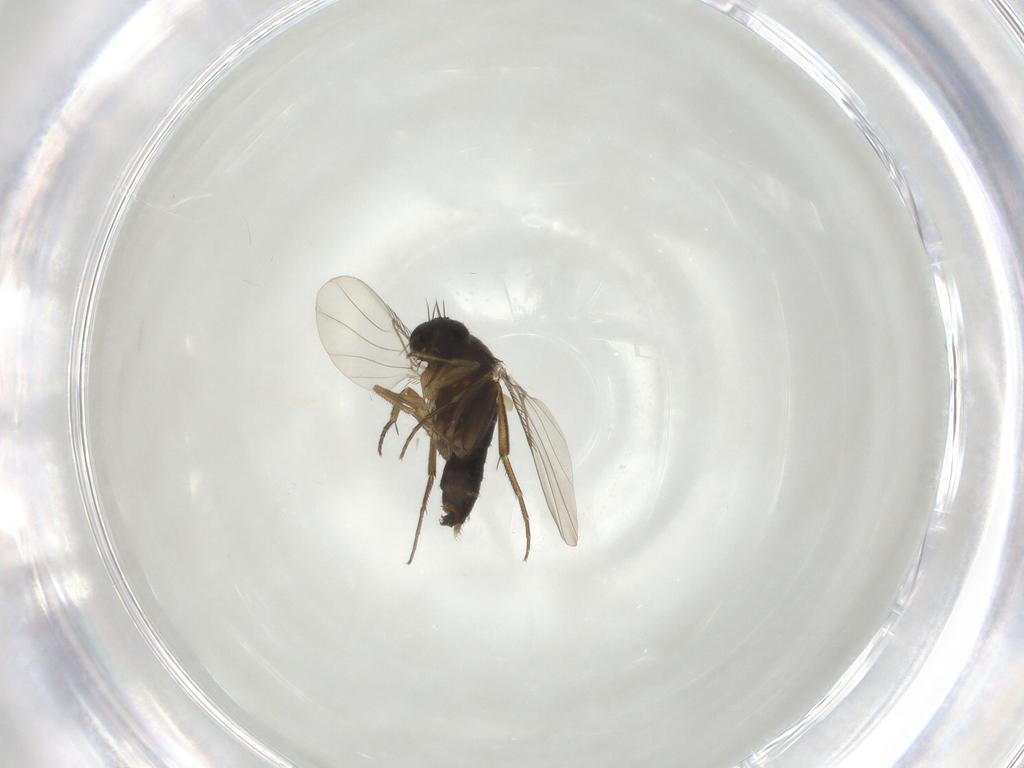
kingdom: Animalia
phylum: Arthropoda
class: Insecta
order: Diptera
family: Phoridae
